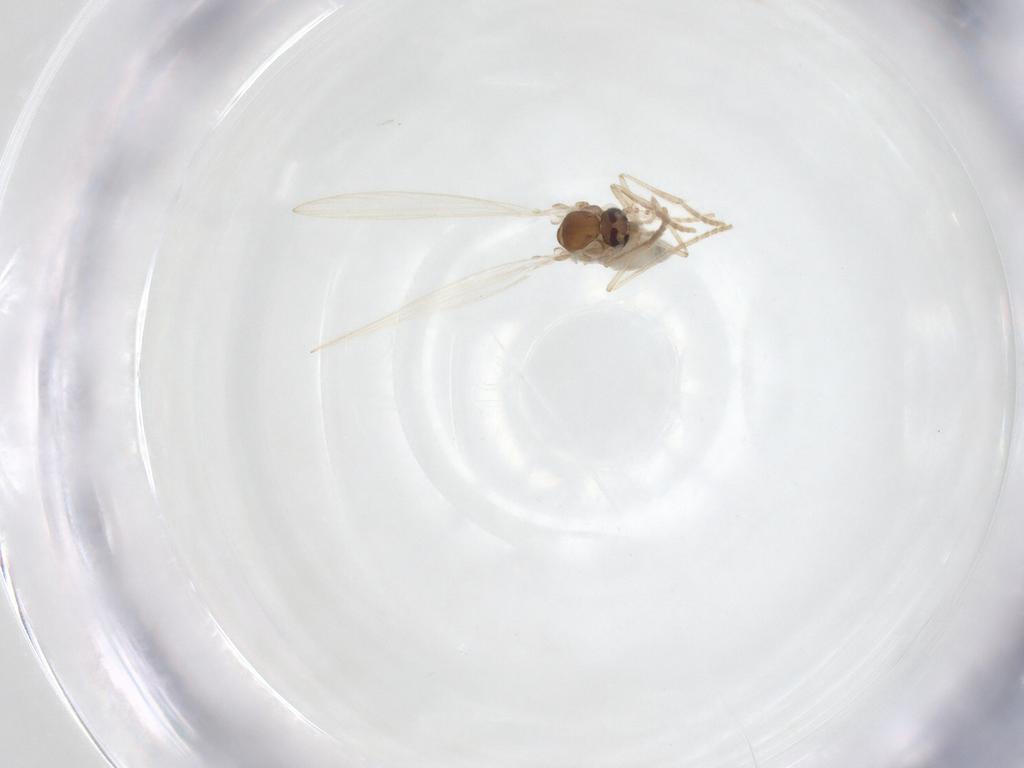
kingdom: Animalia
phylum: Arthropoda
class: Insecta
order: Diptera
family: Psychodidae
